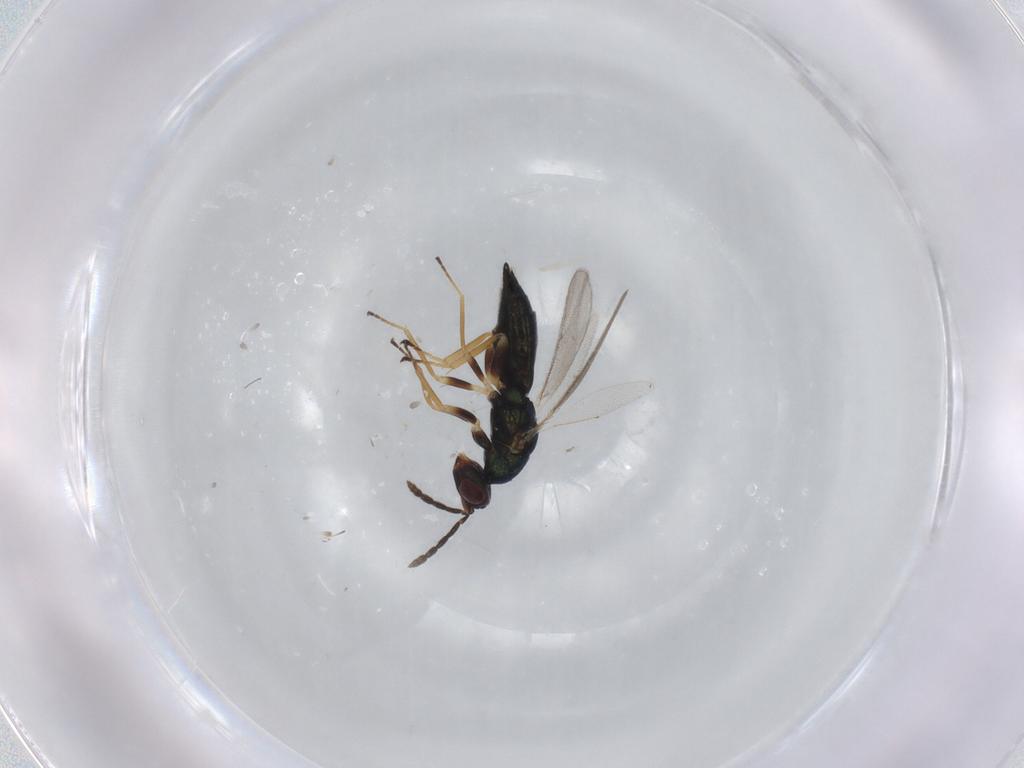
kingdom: Animalia
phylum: Arthropoda
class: Insecta
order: Hymenoptera
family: Eulophidae
